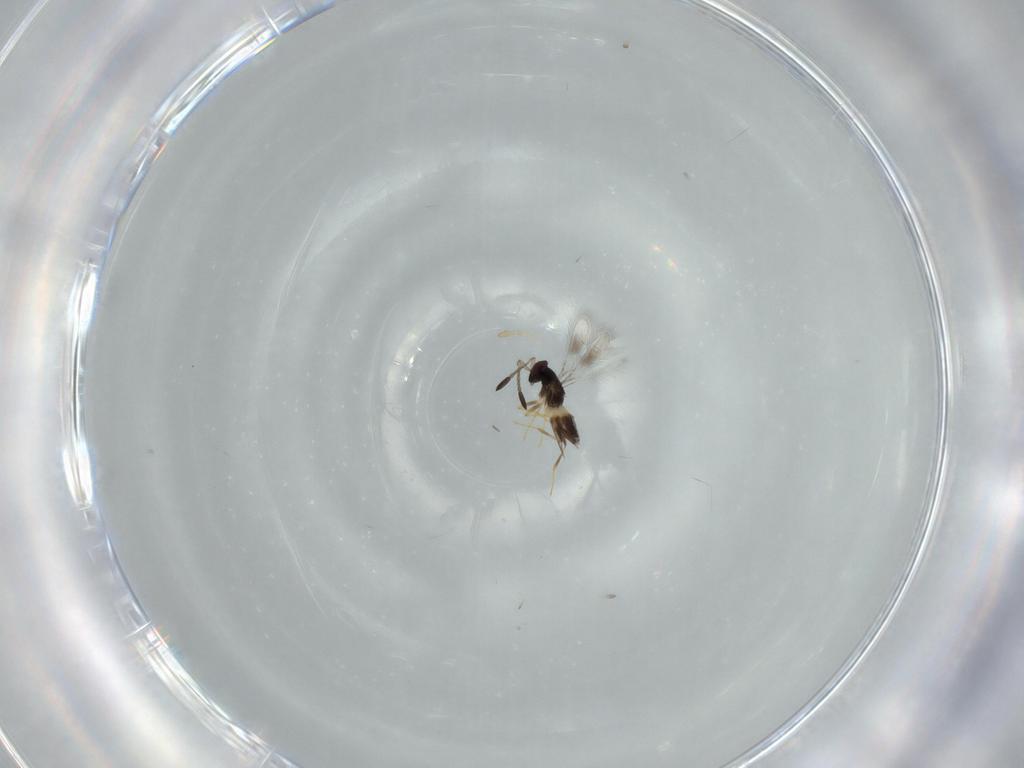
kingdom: Animalia
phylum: Arthropoda
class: Insecta
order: Hymenoptera
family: Mymaridae
